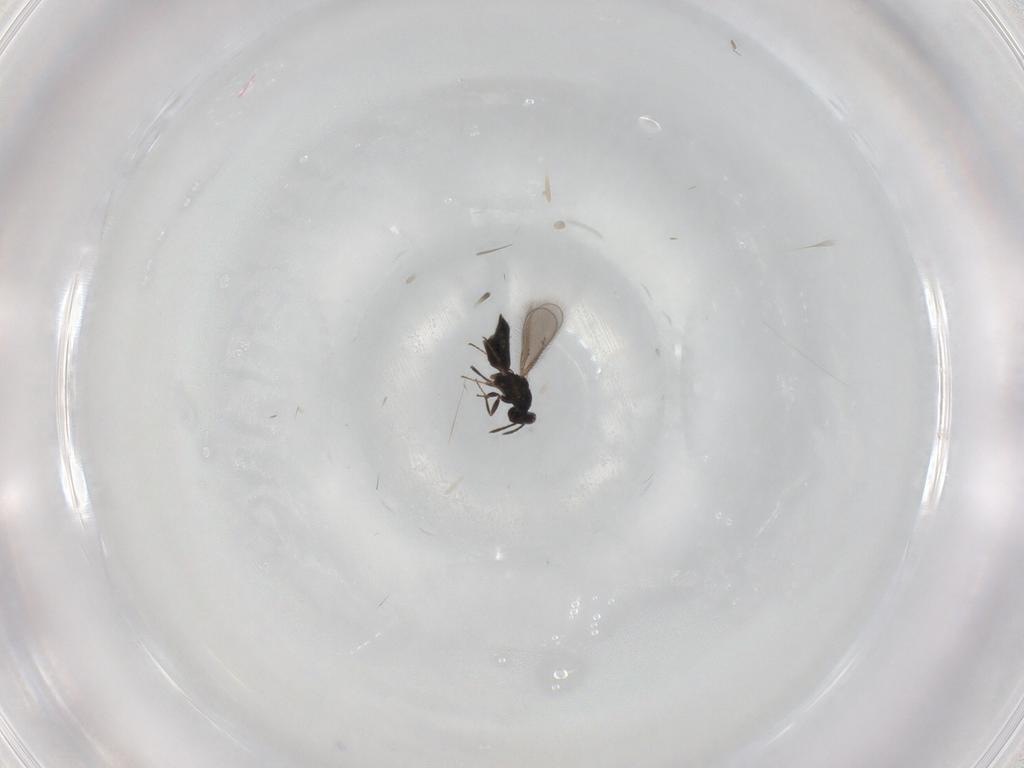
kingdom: Animalia
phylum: Arthropoda
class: Insecta
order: Hymenoptera
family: Eulophidae
